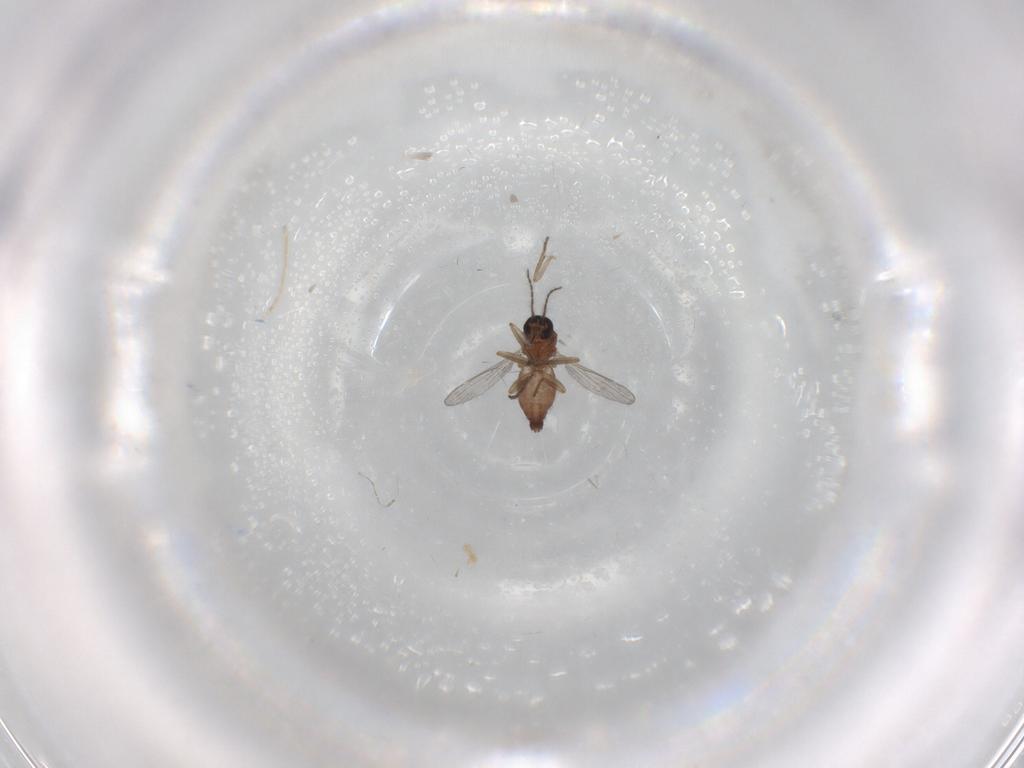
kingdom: Animalia
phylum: Arthropoda
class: Insecta
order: Diptera
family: Ceratopogonidae
